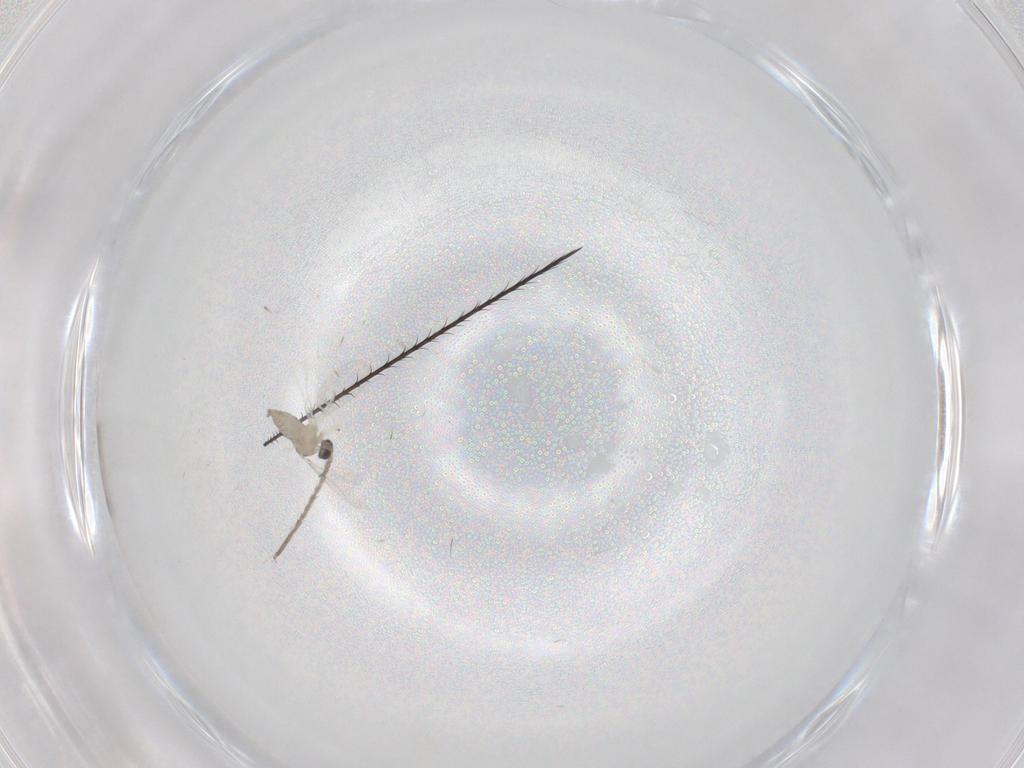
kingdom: Animalia
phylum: Arthropoda
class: Insecta
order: Diptera
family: Cecidomyiidae
